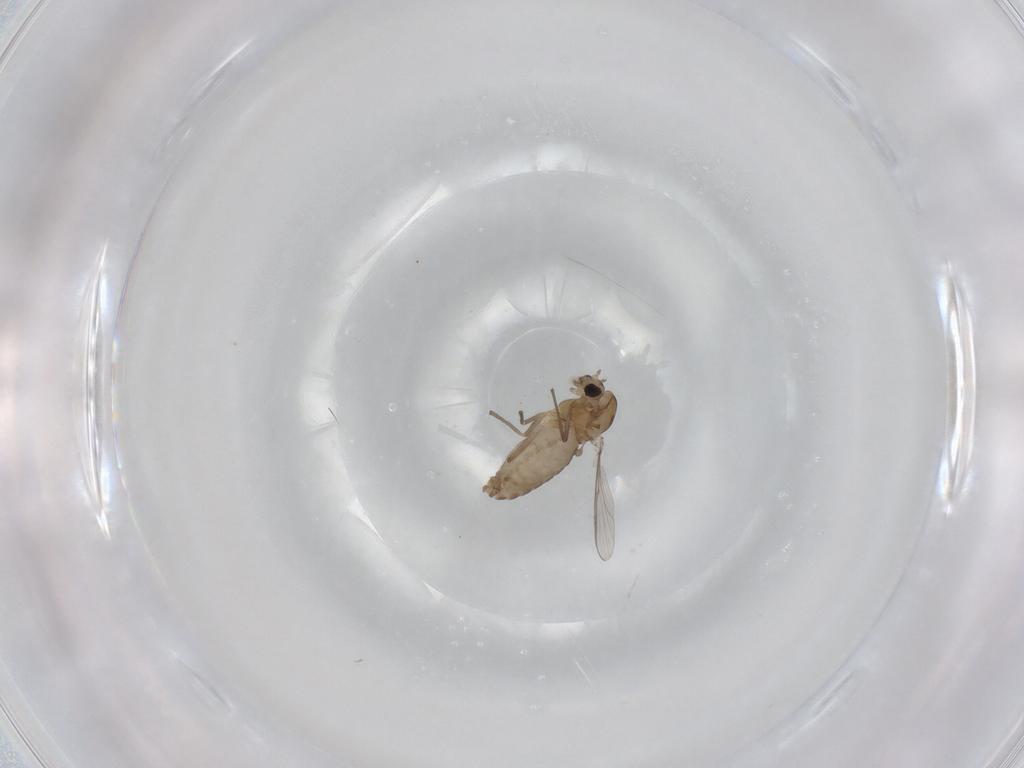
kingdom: Animalia
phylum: Arthropoda
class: Insecta
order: Diptera
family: Chironomidae
